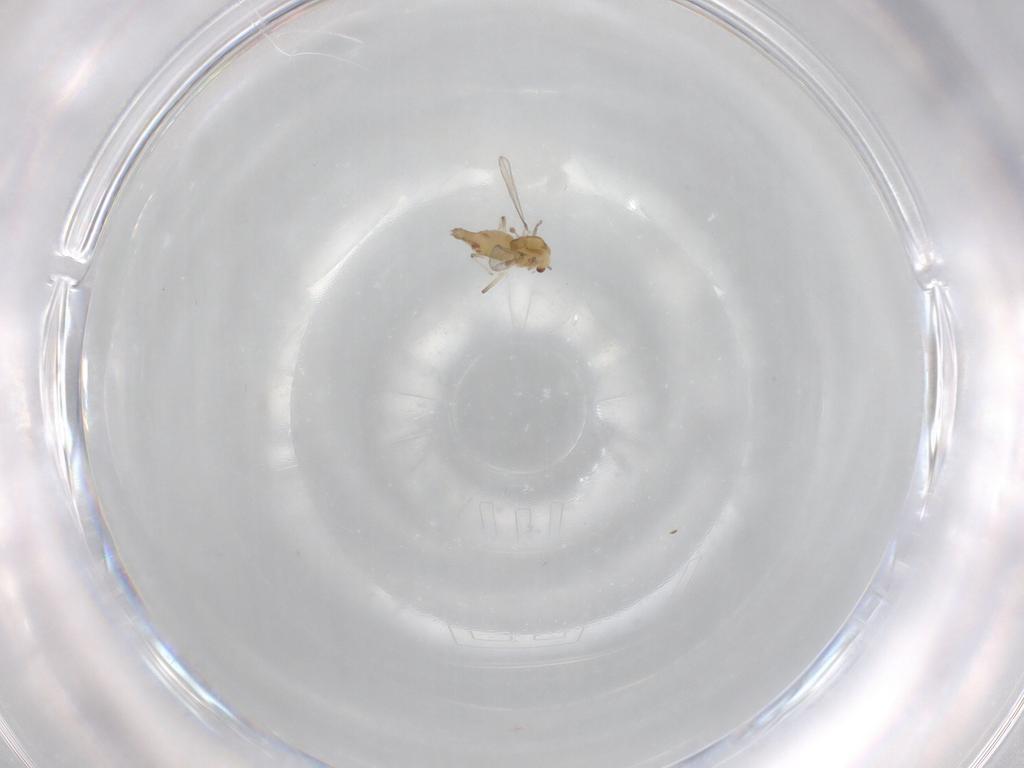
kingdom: Animalia
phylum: Arthropoda
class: Insecta
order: Diptera
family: Chironomidae
